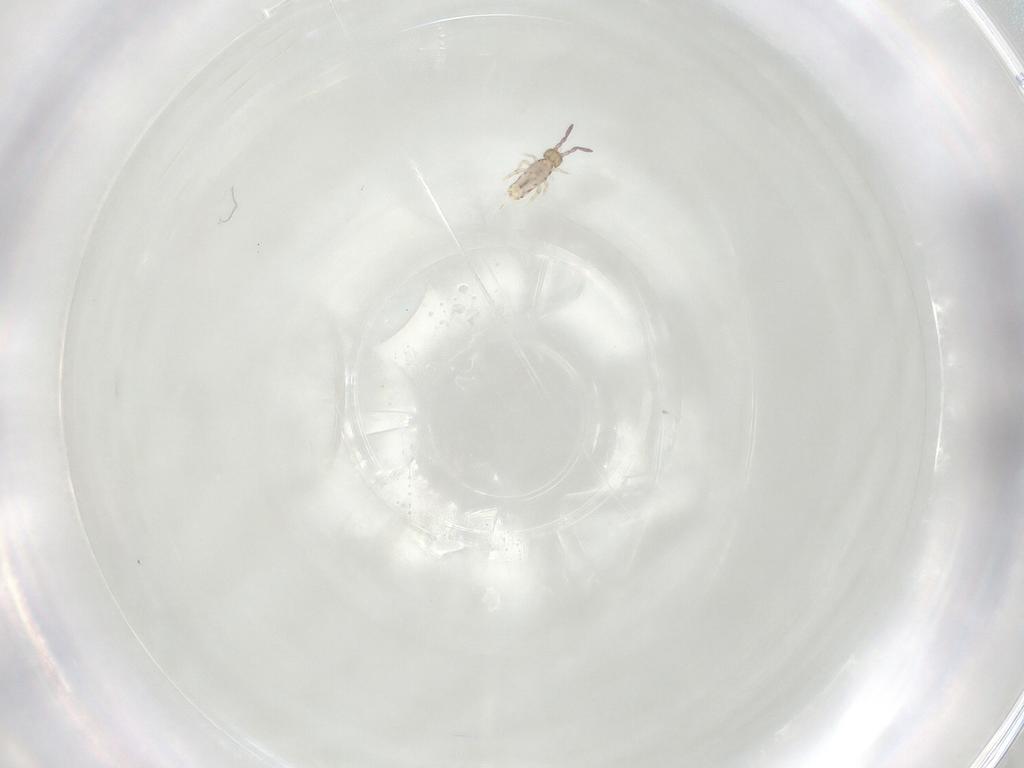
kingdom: Animalia
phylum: Arthropoda
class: Collembola
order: Entomobryomorpha
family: Entomobryidae
